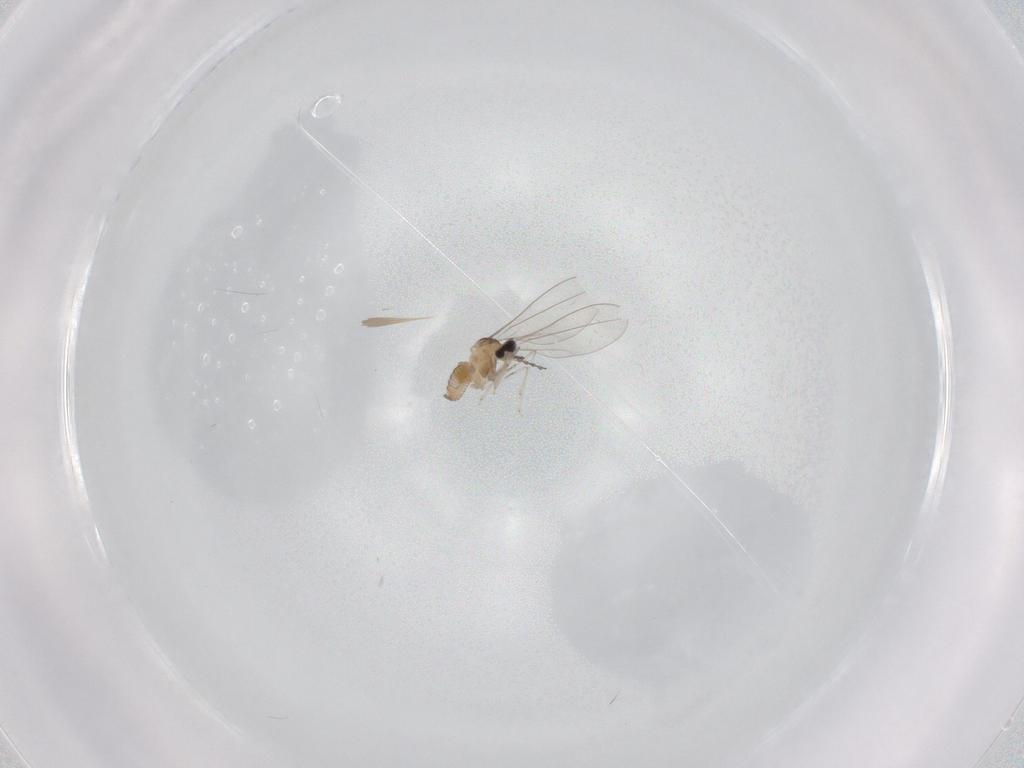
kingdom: Animalia
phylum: Arthropoda
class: Insecta
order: Diptera
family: Cecidomyiidae
